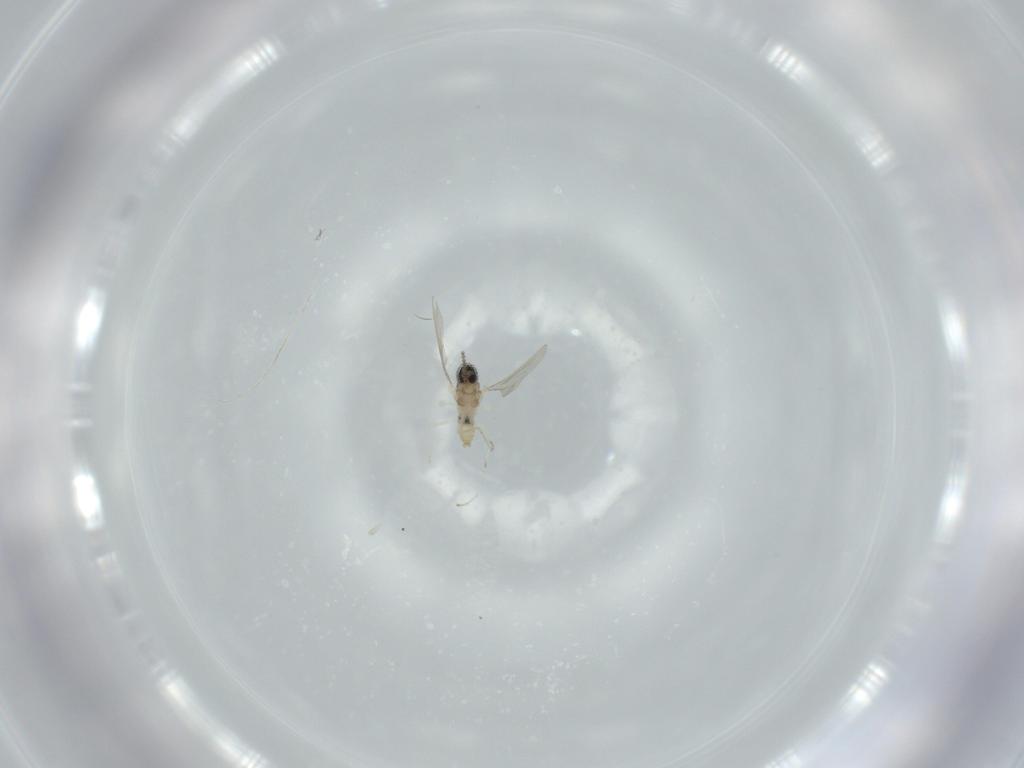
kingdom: Animalia
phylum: Arthropoda
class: Insecta
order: Diptera
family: Cecidomyiidae
